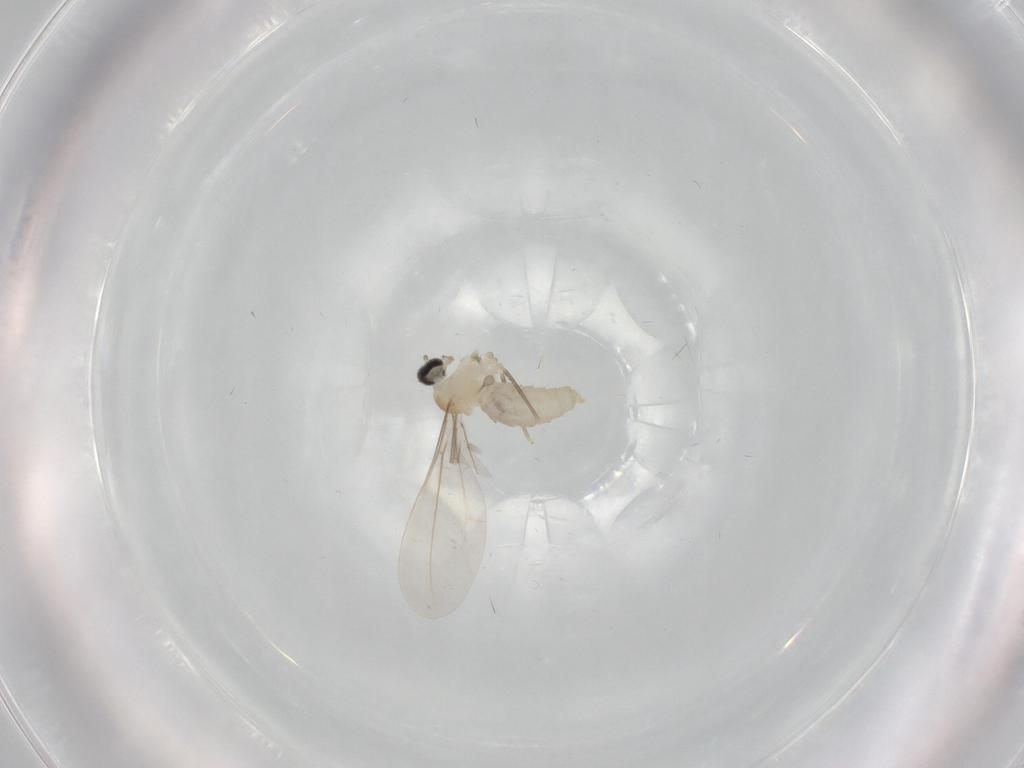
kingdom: Animalia
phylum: Arthropoda
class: Insecta
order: Diptera
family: Cecidomyiidae
